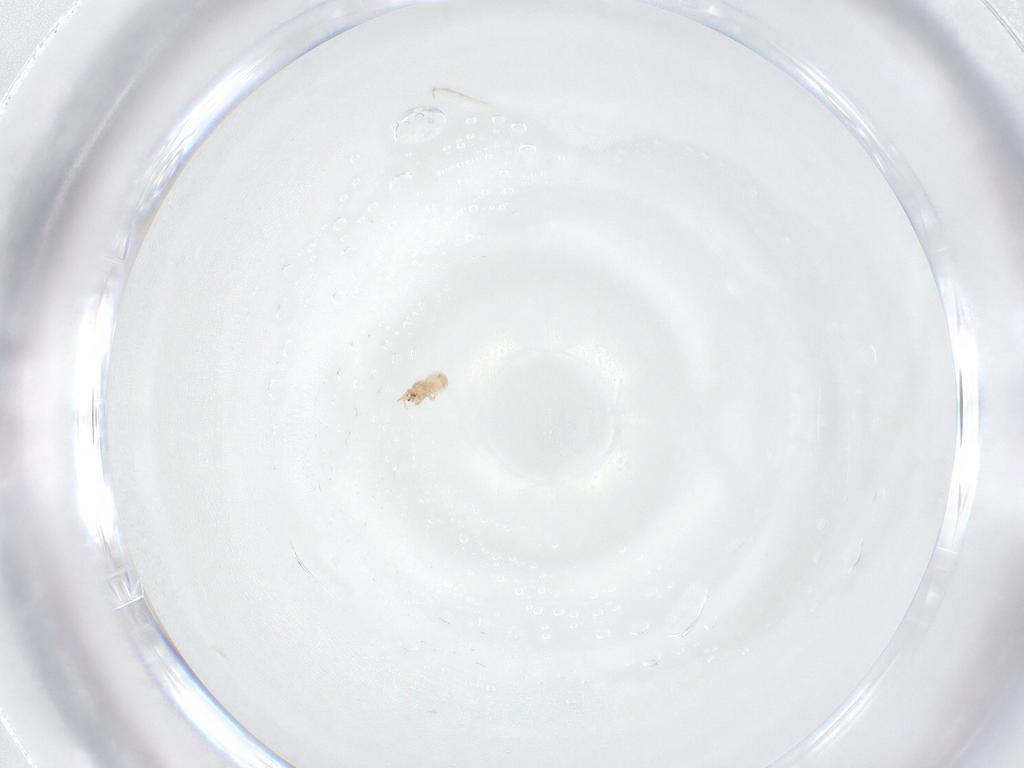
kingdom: Animalia
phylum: Arthropoda
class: Arachnida
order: Mesostigmata
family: Ascidae
